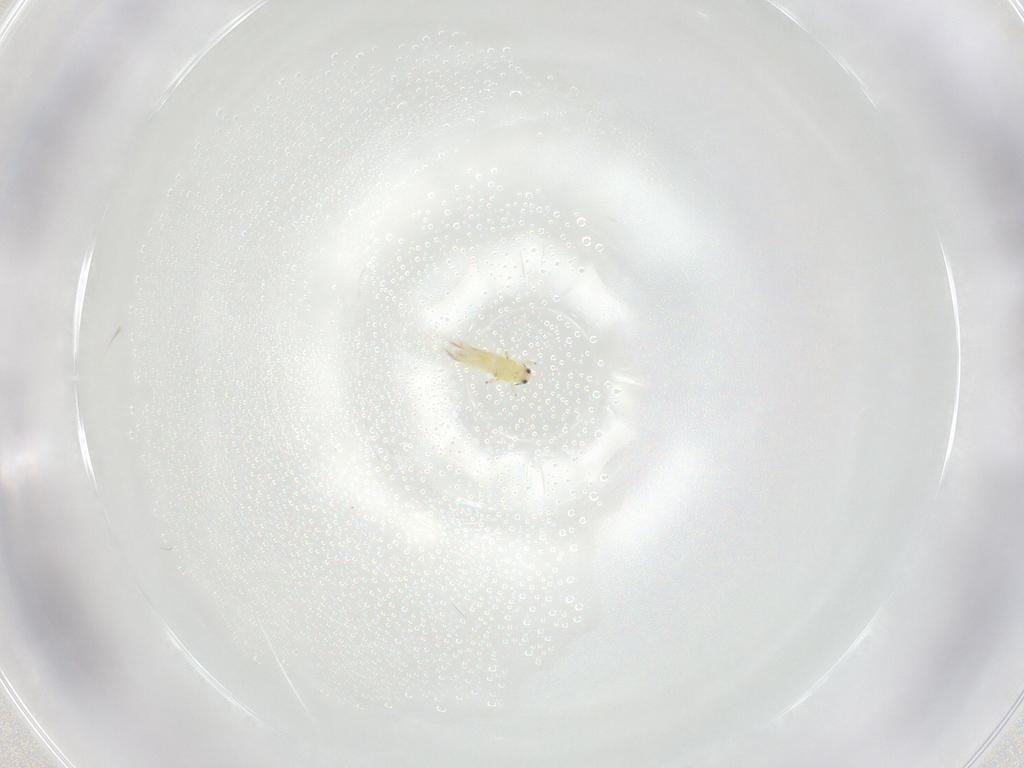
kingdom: Animalia
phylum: Arthropoda
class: Insecta
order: Thysanoptera
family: Thripidae
